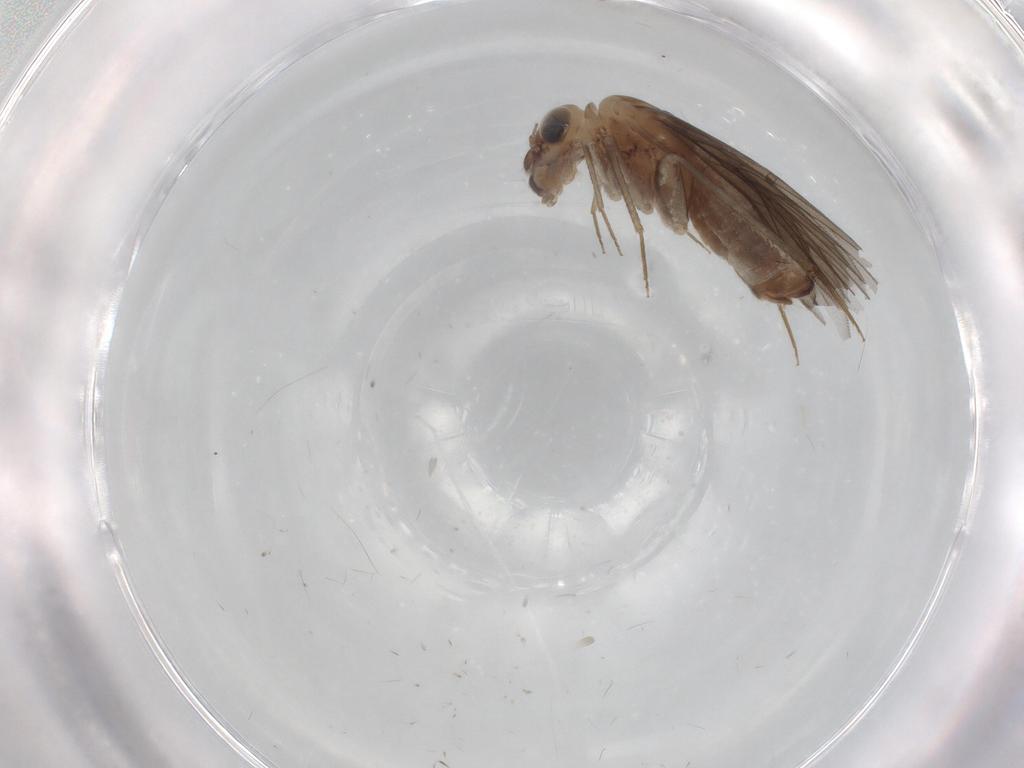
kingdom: Animalia
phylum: Arthropoda
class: Insecta
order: Psocodea
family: Lepidopsocidae
